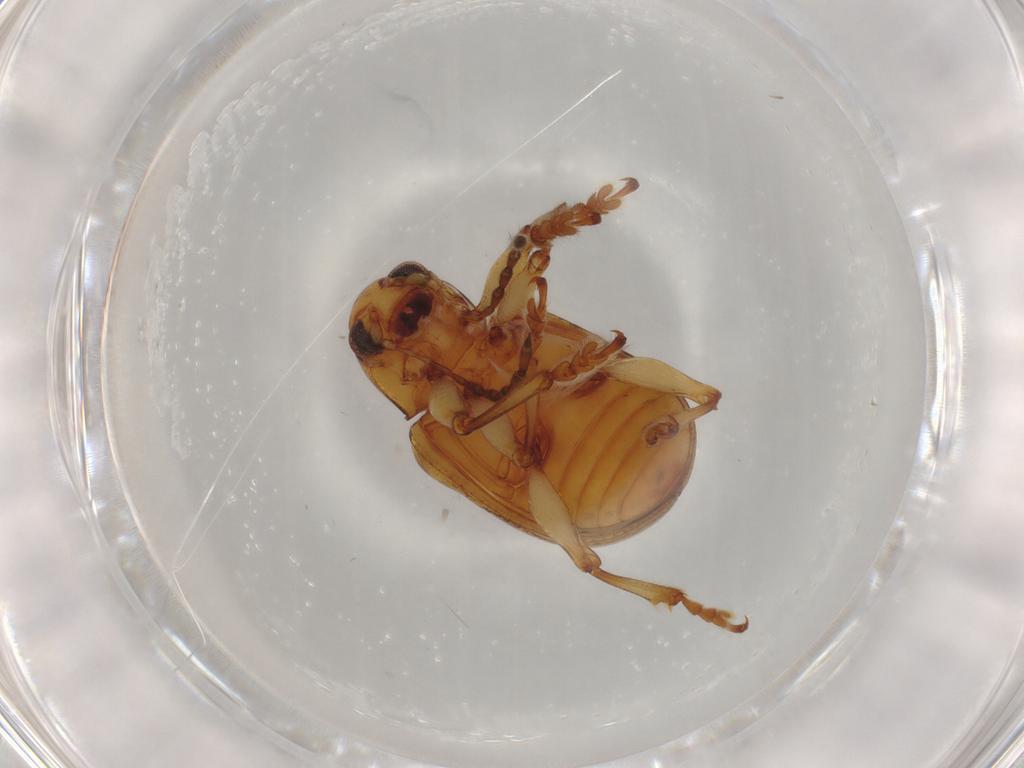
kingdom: Animalia
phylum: Arthropoda
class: Insecta
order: Coleoptera
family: Chrysomelidae
